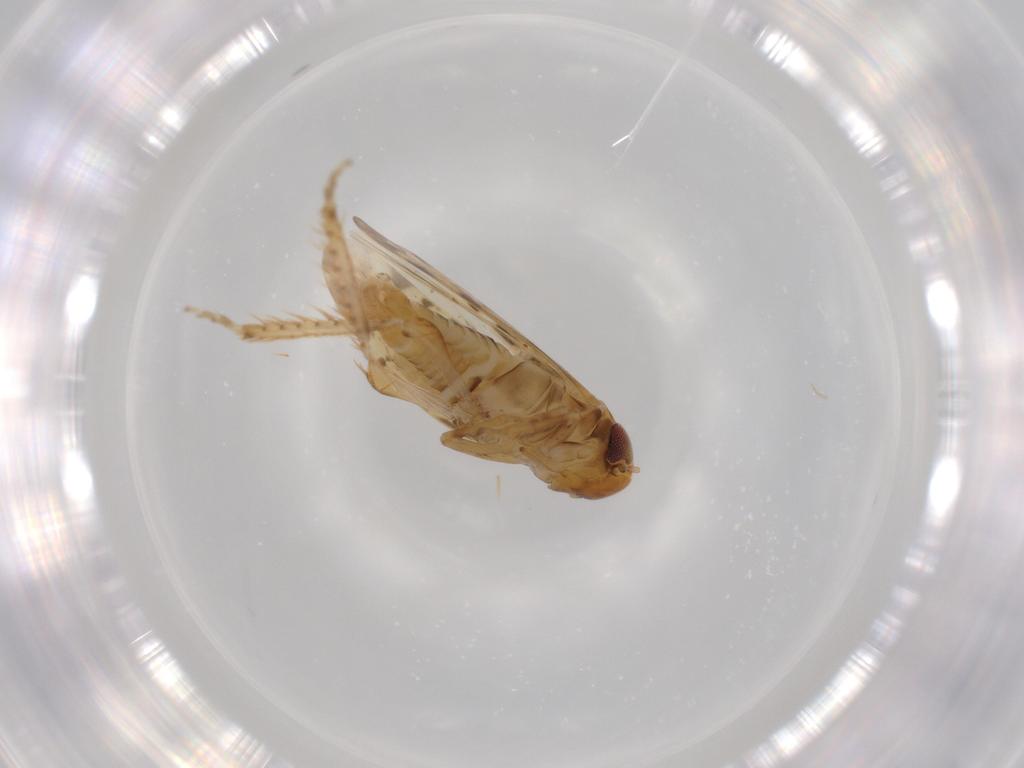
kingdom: Animalia
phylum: Arthropoda
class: Insecta
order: Hemiptera
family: Cicadellidae
